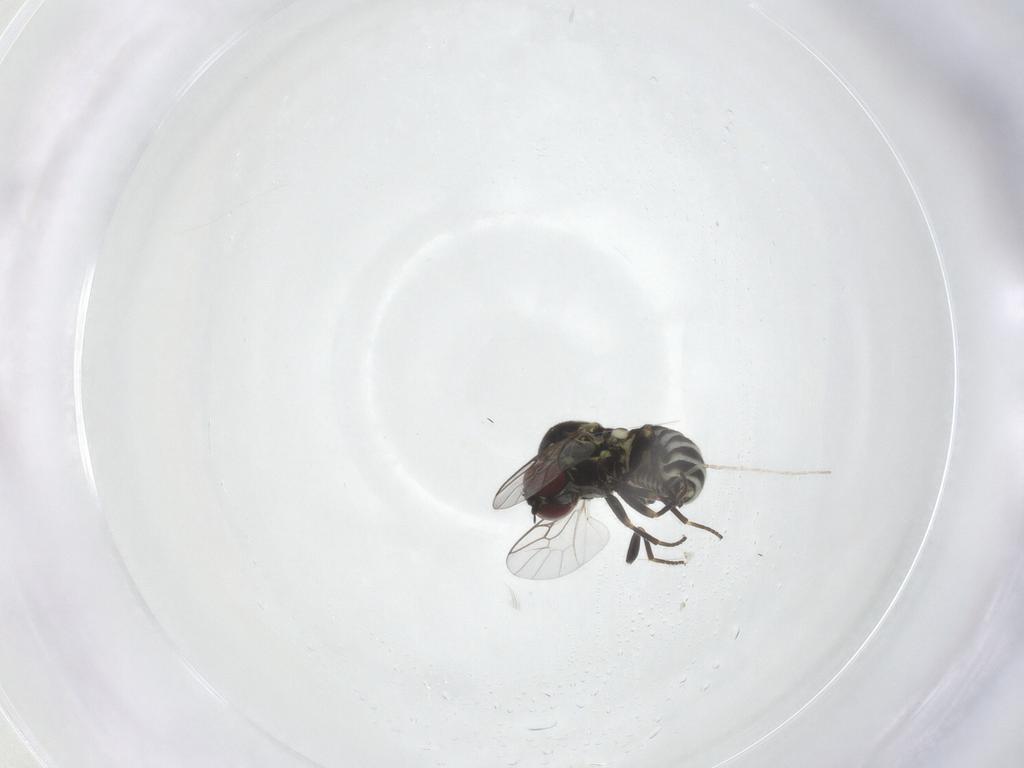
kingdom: Animalia
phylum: Arthropoda
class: Insecta
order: Diptera
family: Mythicomyiidae
